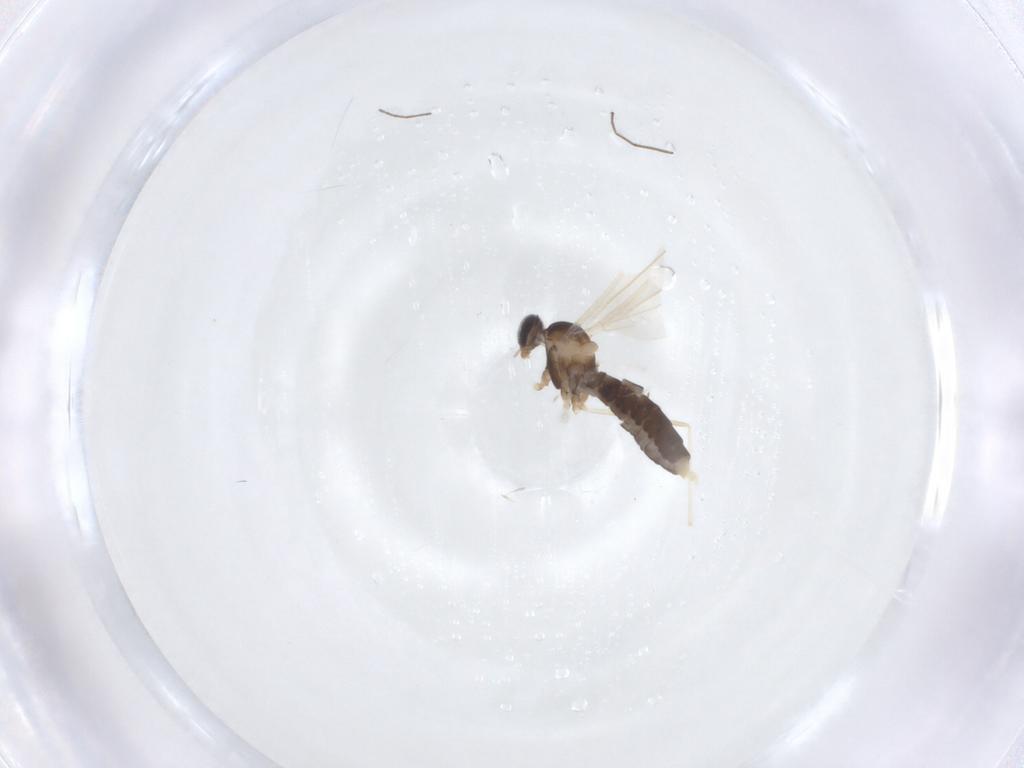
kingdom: Animalia
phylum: Arthropoda
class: Insecta
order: Diptera
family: Cecidomyiidae
